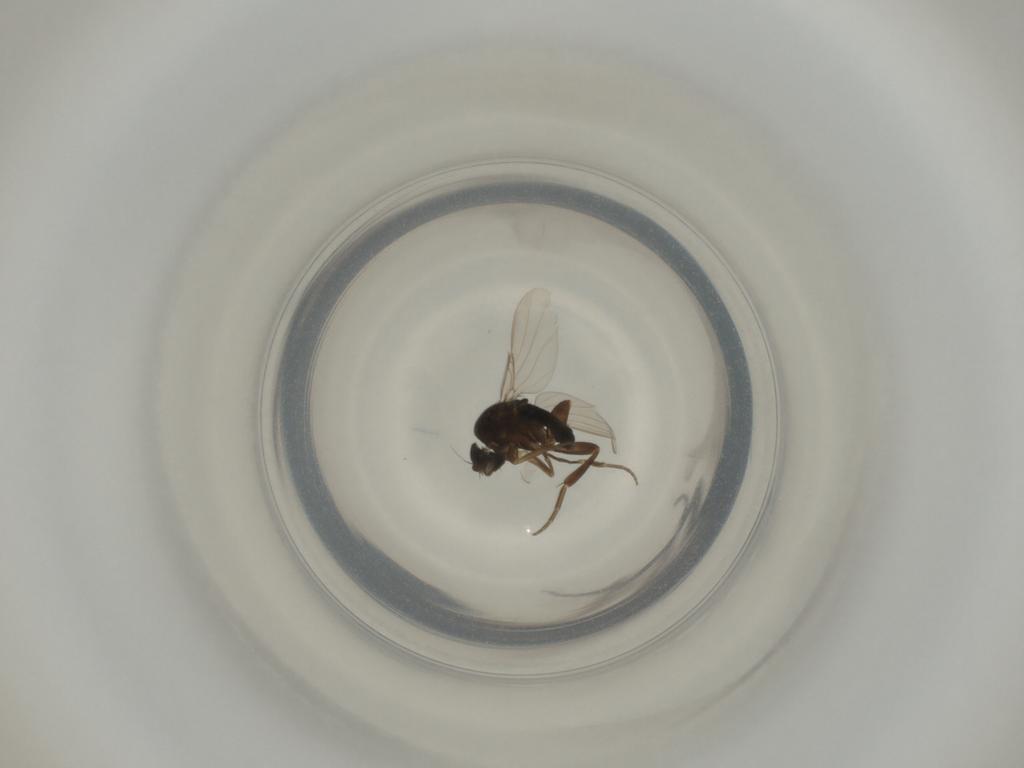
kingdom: Animalia
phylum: Arthropoda
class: Insecta
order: Diptera
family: Phoridae
